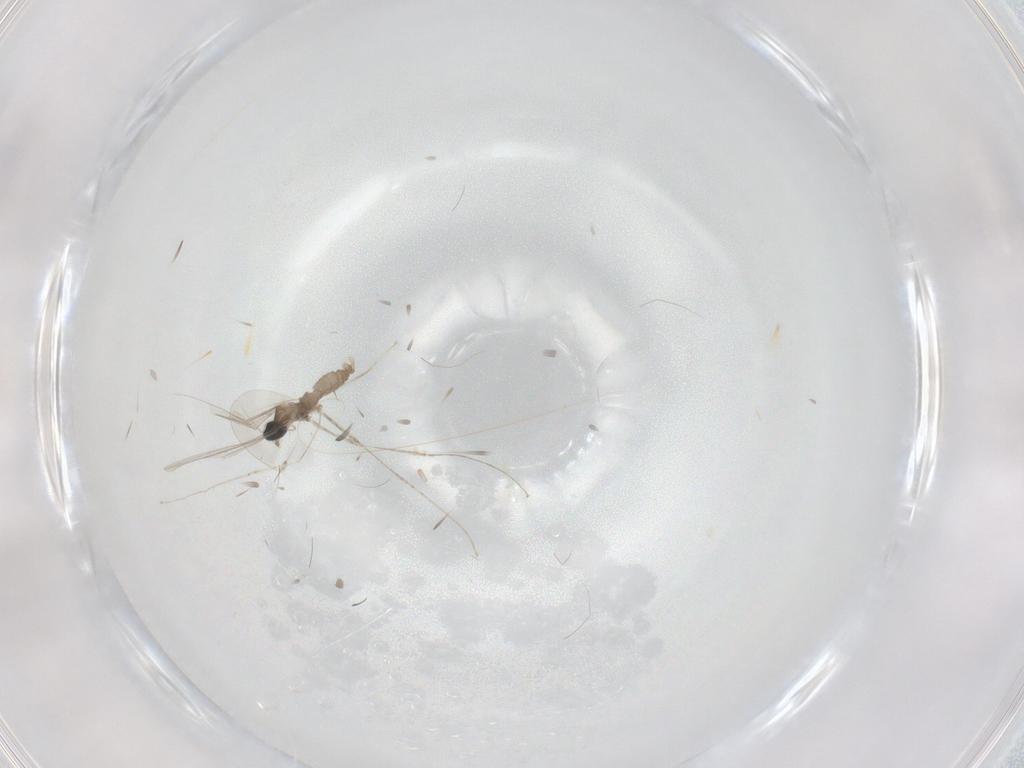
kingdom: Animalia
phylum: Arthropoda
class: Insecta
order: Diptera
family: Cecidomyiidae
